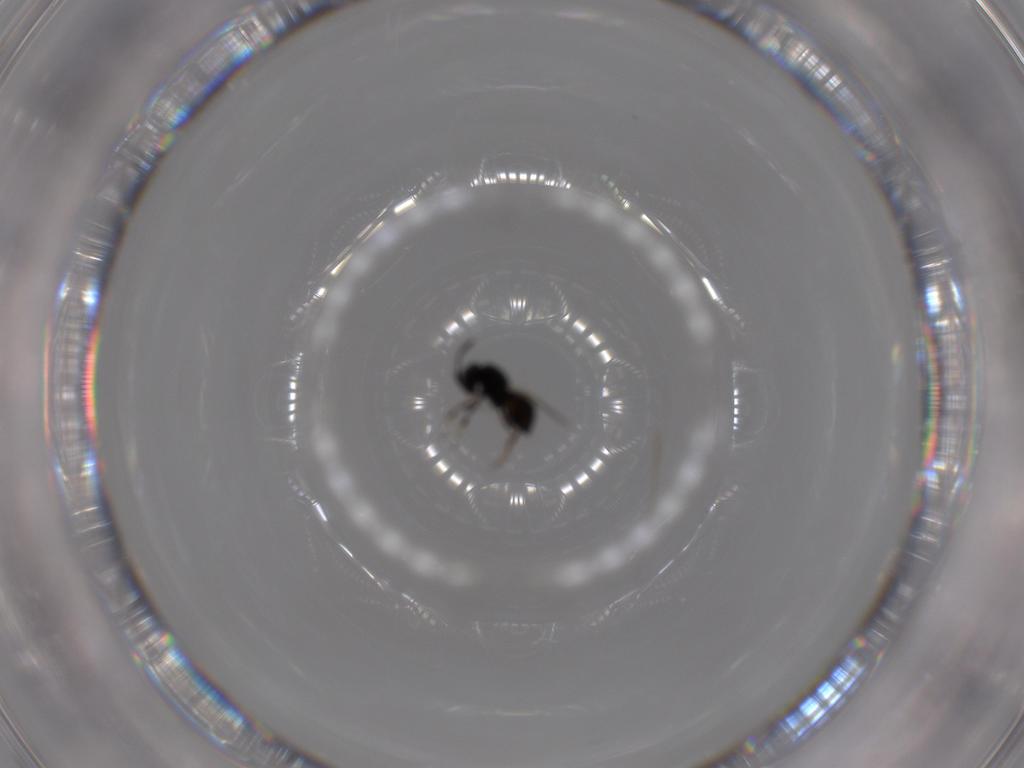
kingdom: Animalia
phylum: Arthropoda
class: Insecta
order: Hymenoptera
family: Scelionidae
